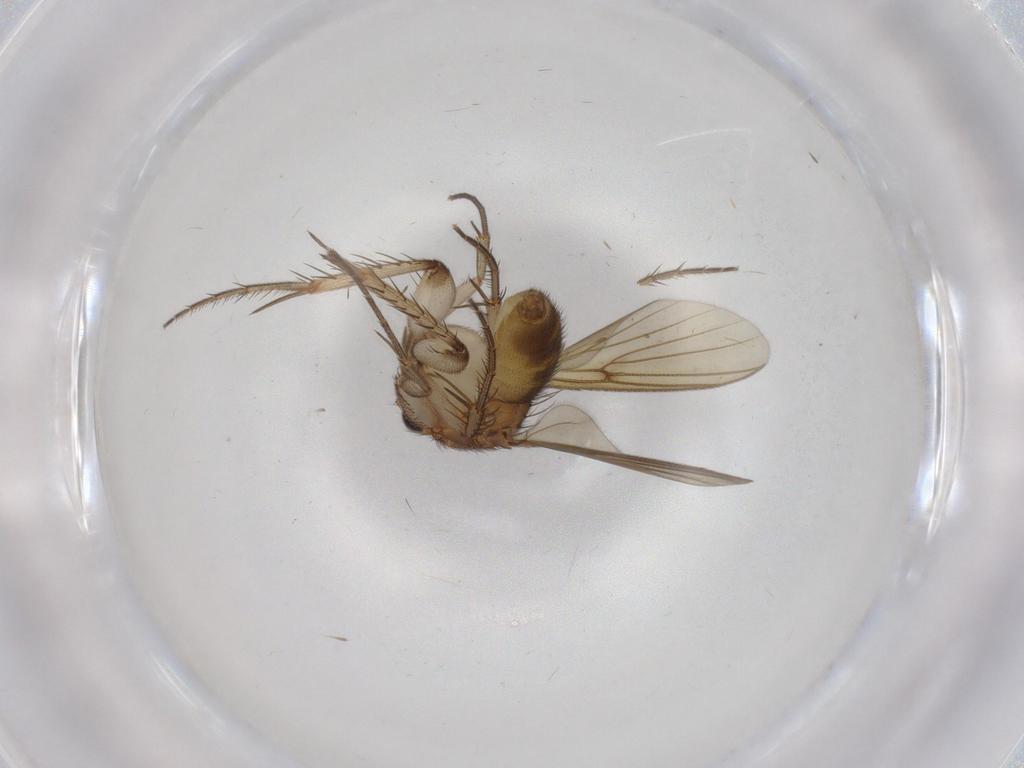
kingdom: Animalia
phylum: Arthropoda
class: Insecta
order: Diptera
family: Mycetophilidae
